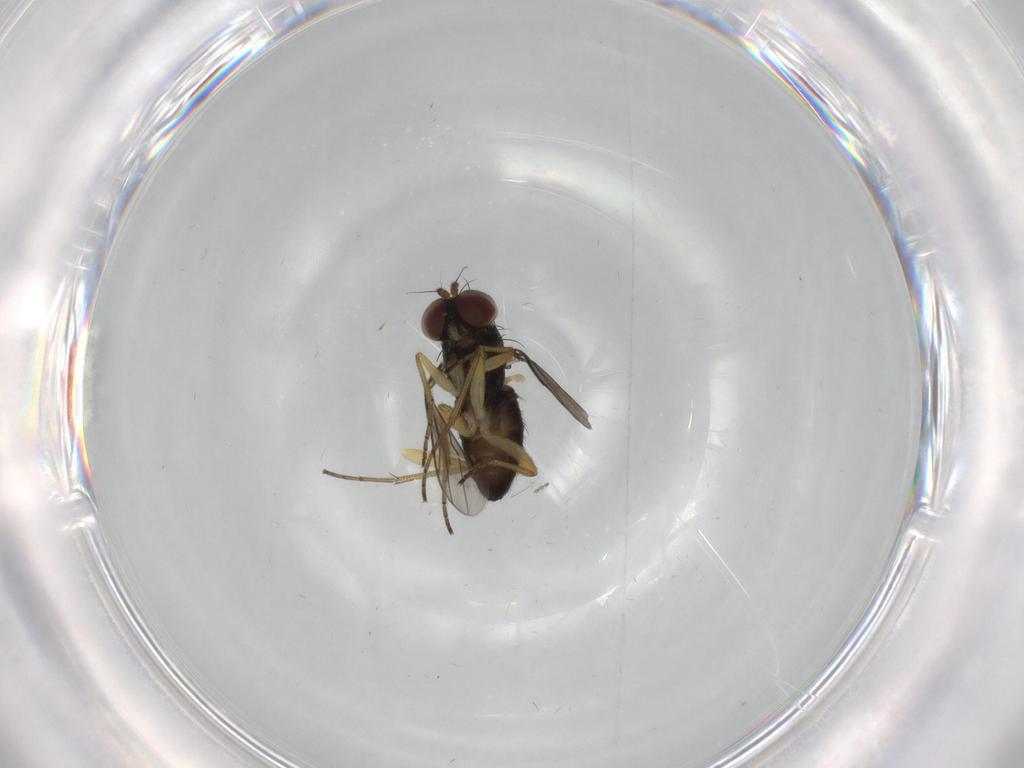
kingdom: Animalia
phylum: Arthropoda
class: Insecta
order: Diptera
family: Dolichopodidae
